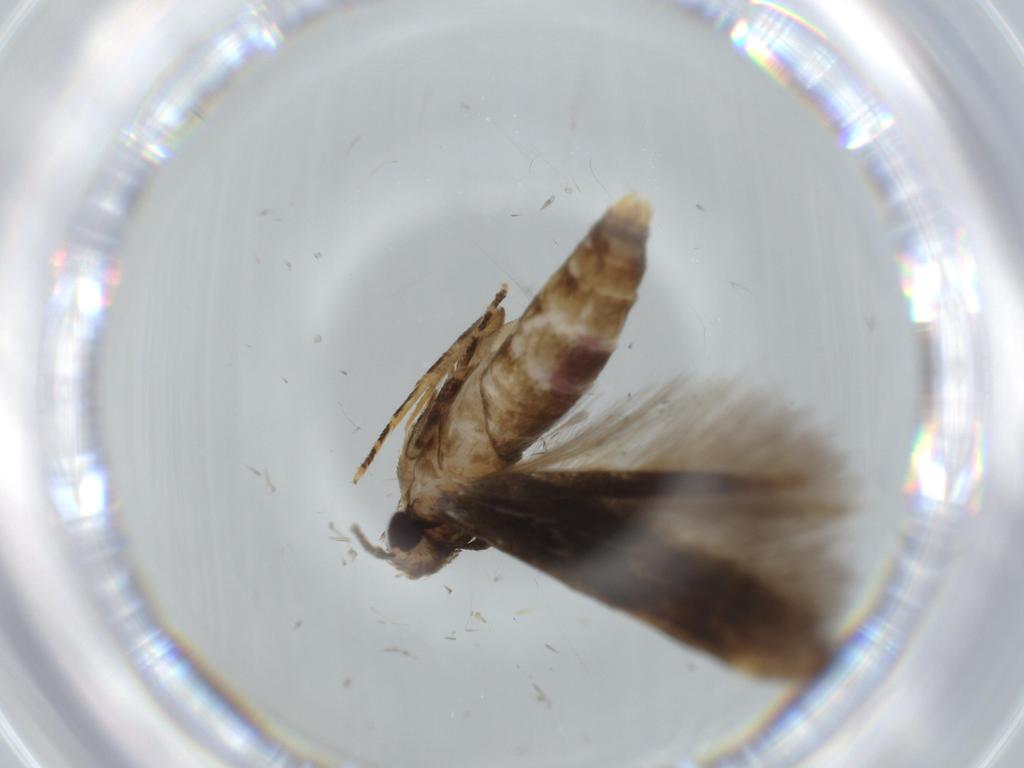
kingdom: Animalia
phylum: Arthropoda
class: Insecta
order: Lepidoptera
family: Cosmopterigidae
